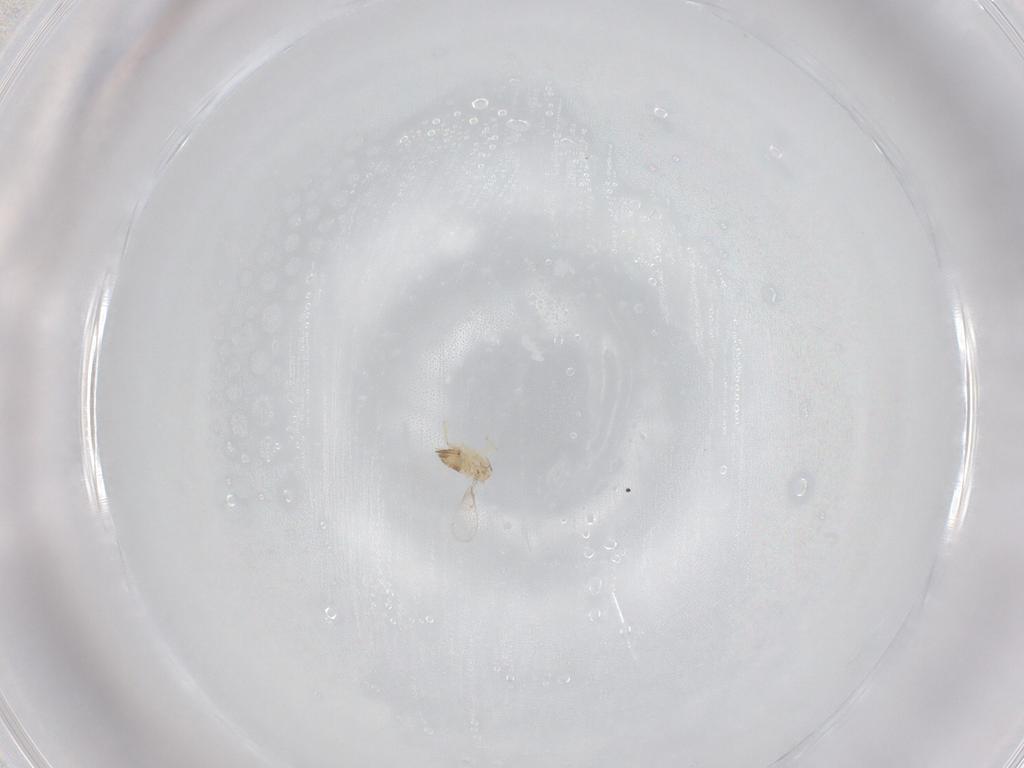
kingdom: Animalia
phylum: Arthropoda
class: Insecta
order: Hymenoptera
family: Trichogrammatidae
